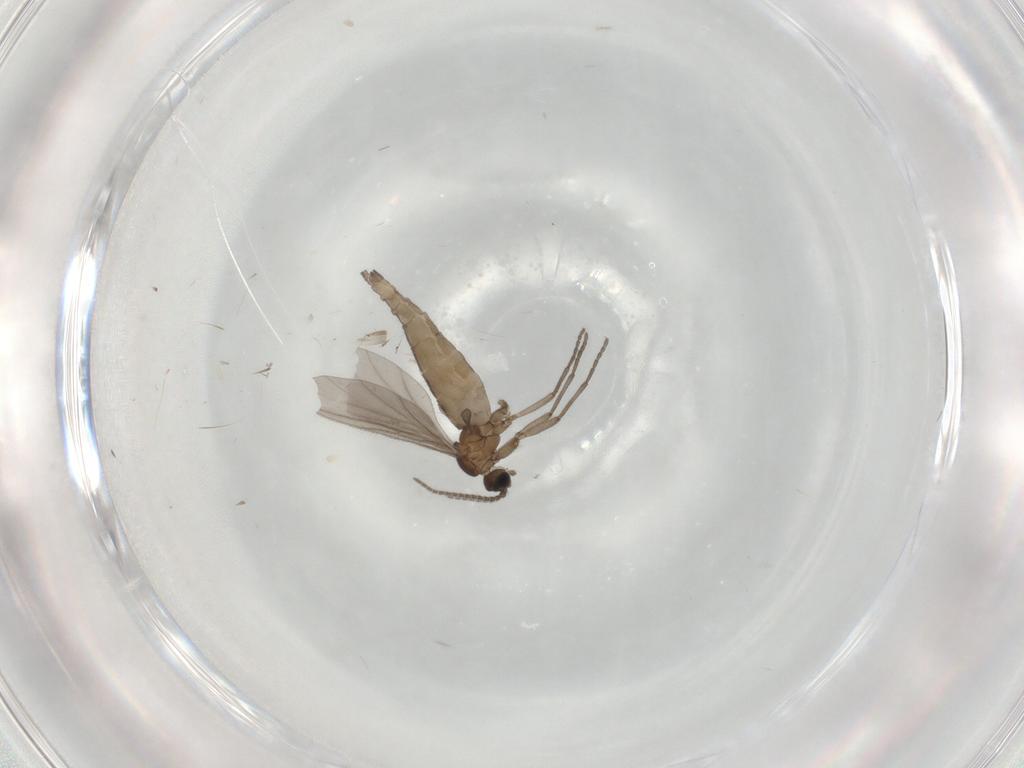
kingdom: Animalia
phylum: Arthropoda
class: Insecta
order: Diptera
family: Sciaridae
